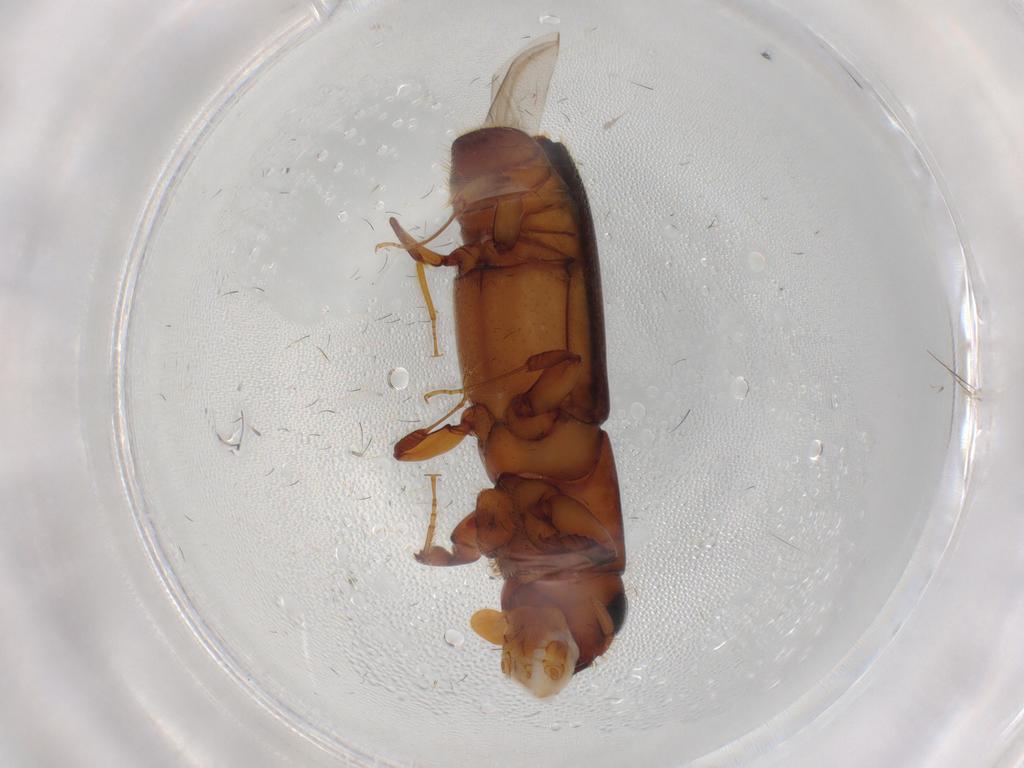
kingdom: Animalia
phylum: Arthropoda
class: Insecta
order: Coleoptera
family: Curculionidae
